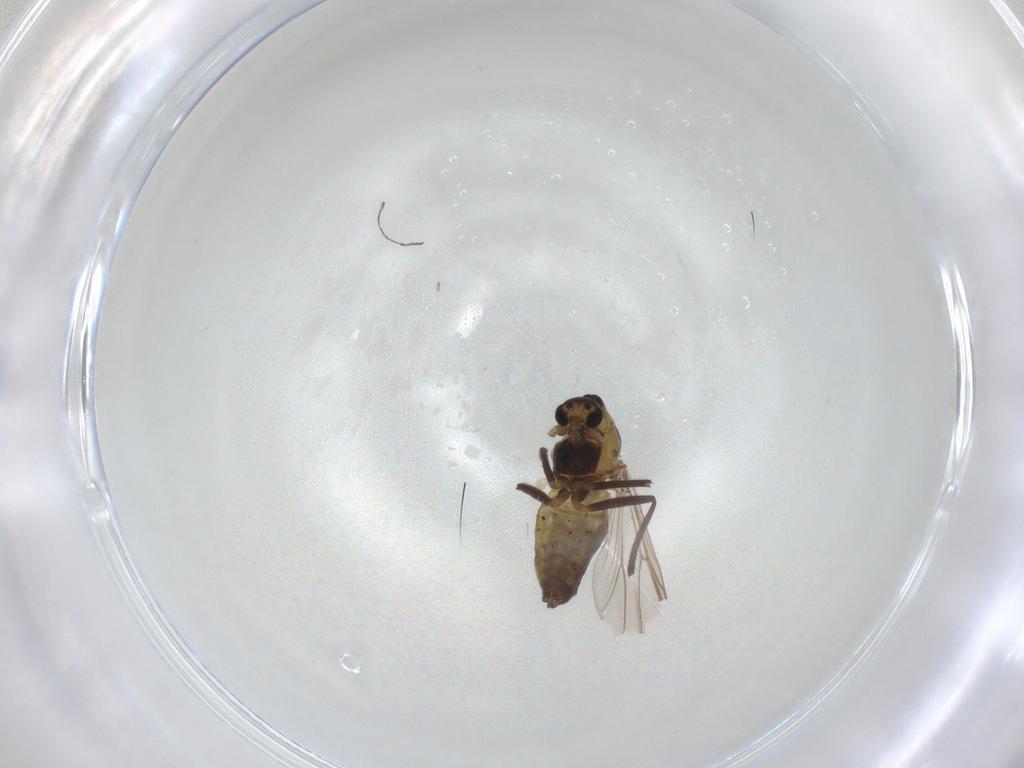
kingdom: Animalia
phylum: Arthropoda
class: Insecta
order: Diptera
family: Chironomidae
